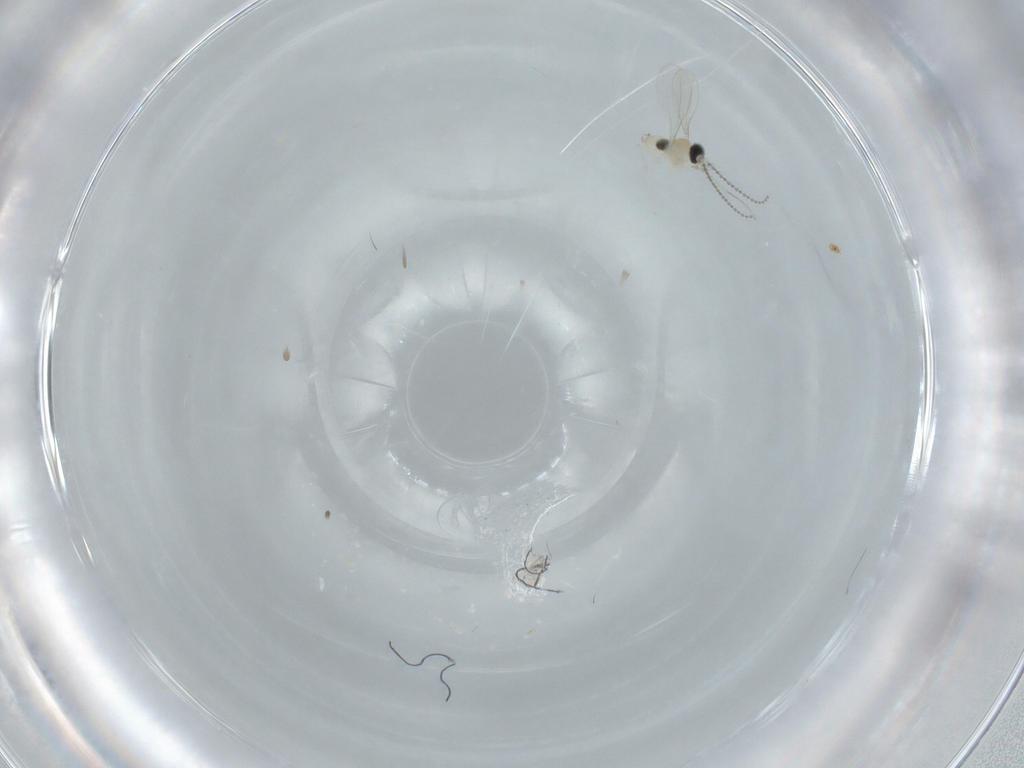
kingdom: Animalia
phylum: Arthropoda
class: Insecta
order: Diptera
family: Cecidomyiidae
